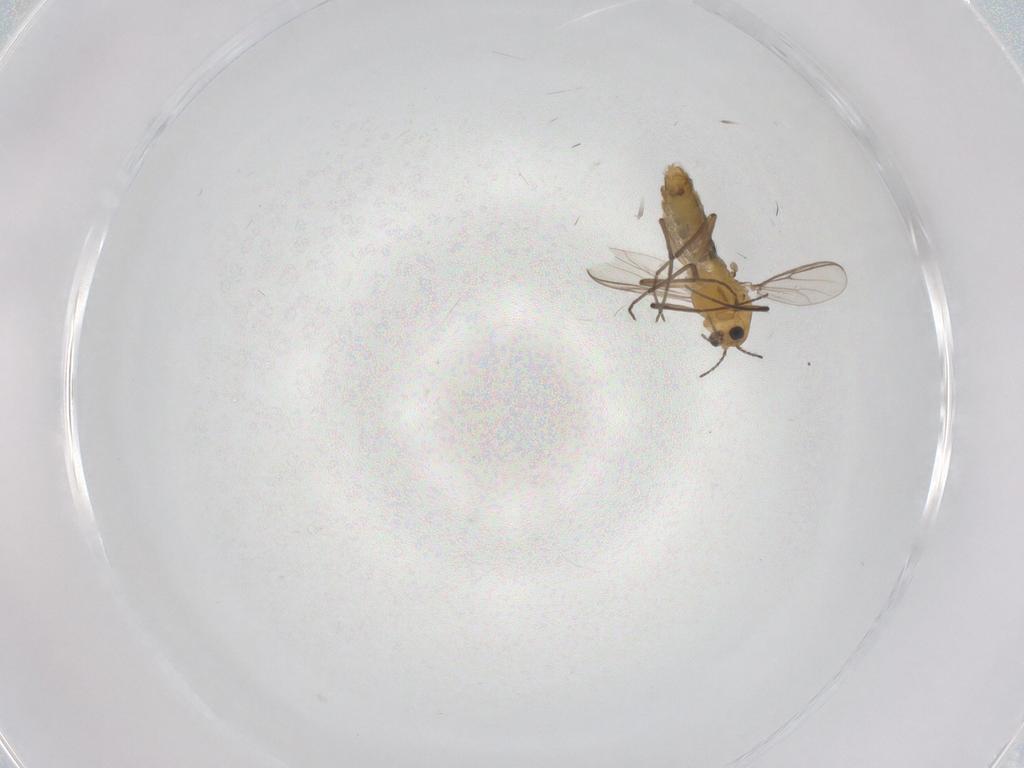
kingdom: Animalia
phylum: Arthropoda
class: Insecta
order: Diptera
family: Chironomidae
